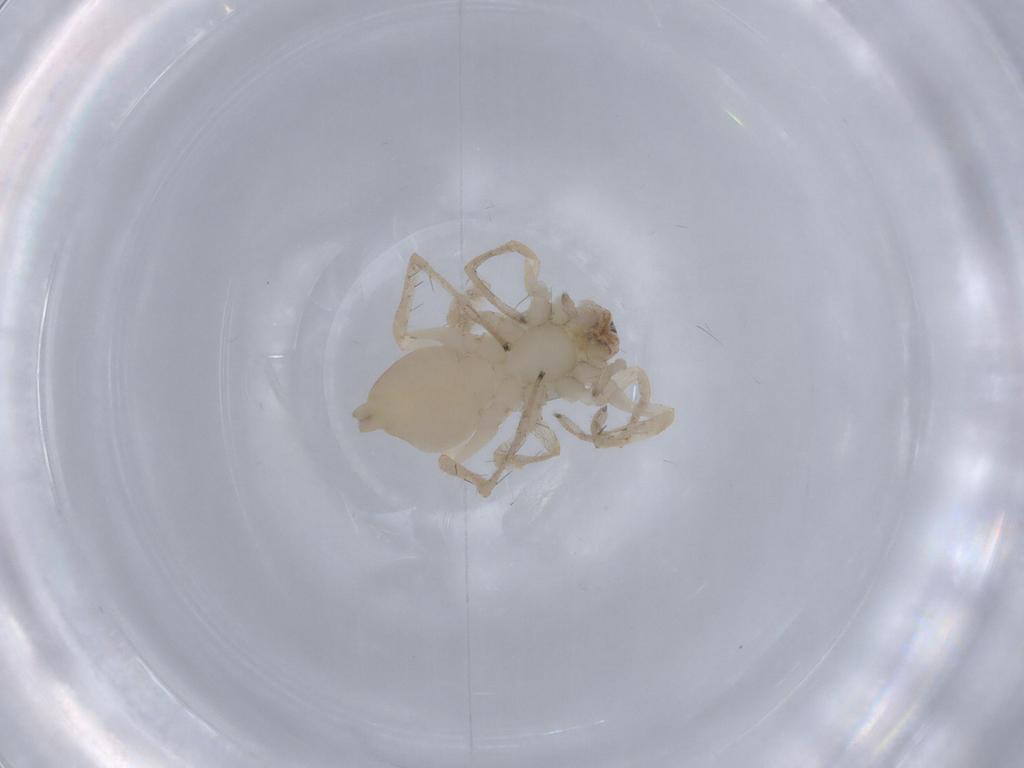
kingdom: Animalia
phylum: Arthropoda
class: Arachnida
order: Araneae
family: Clubionidae
